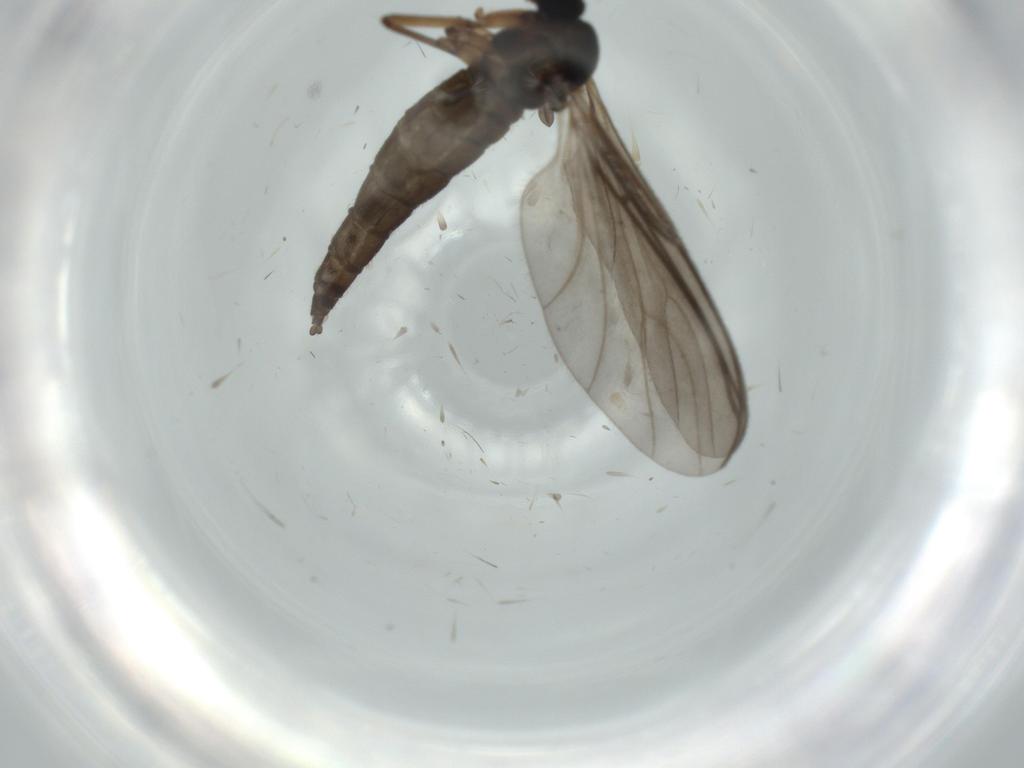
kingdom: Animalia
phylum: Arthropoda
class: Insecta
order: Diptera
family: Sciaridae
